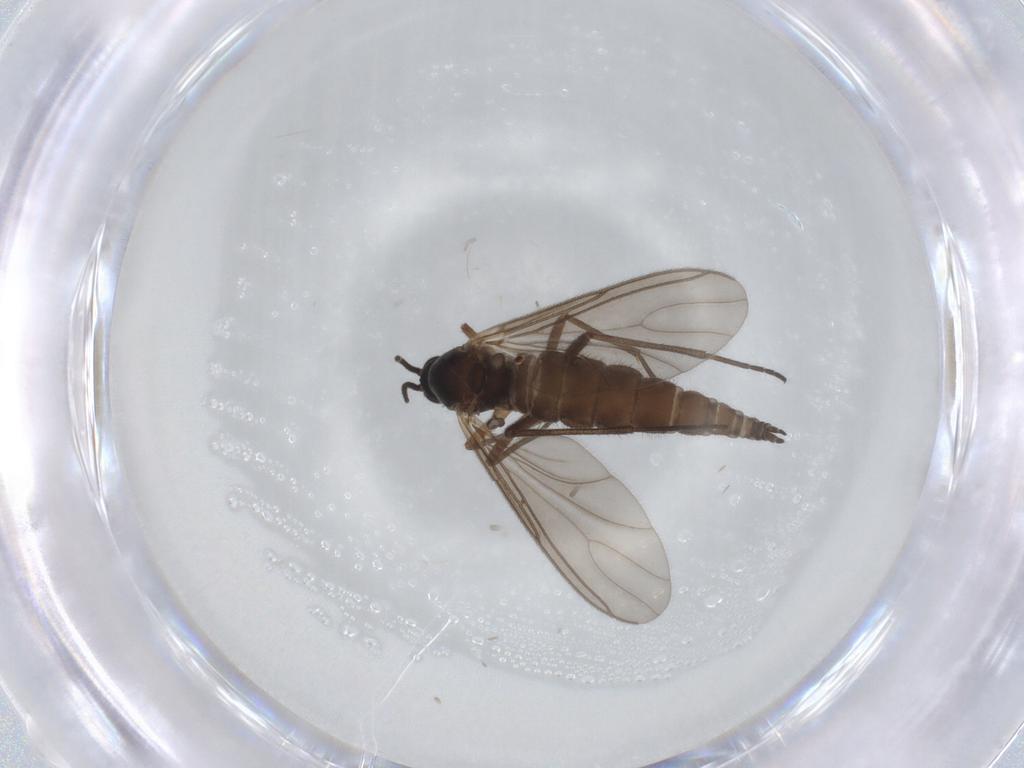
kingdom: Animalia
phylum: Arthropoda
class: Insecta
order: Diptera
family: Sciaridae
